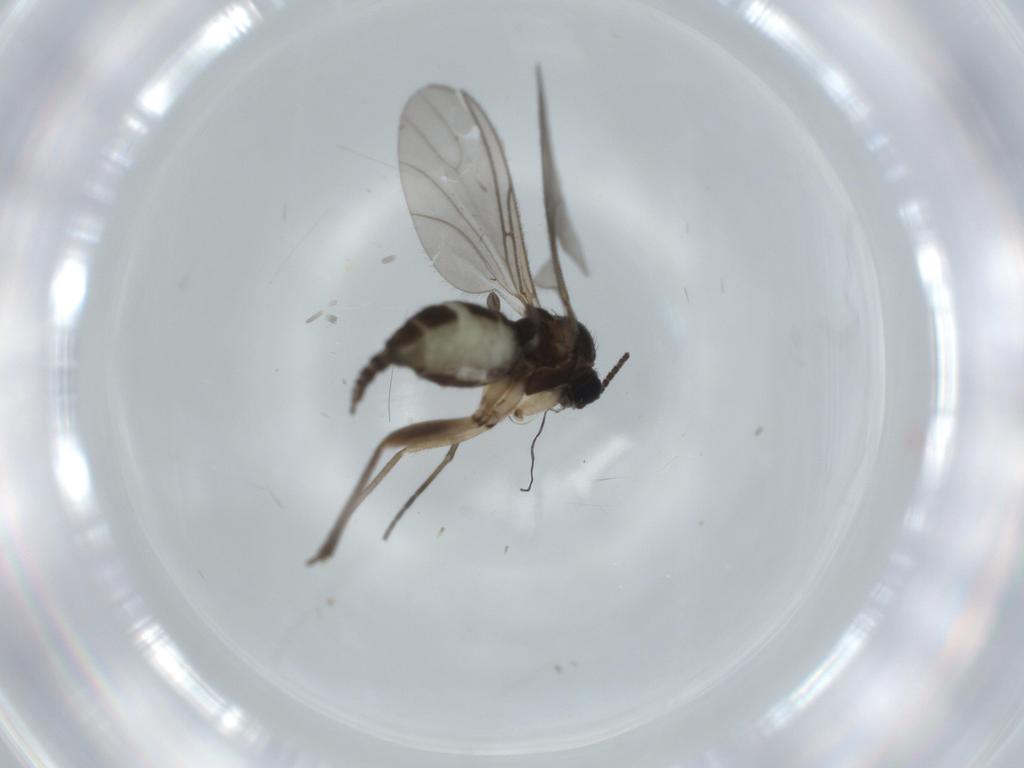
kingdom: Animalia
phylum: Arthropoda
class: Insecta
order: Diptera
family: Sciaridae
